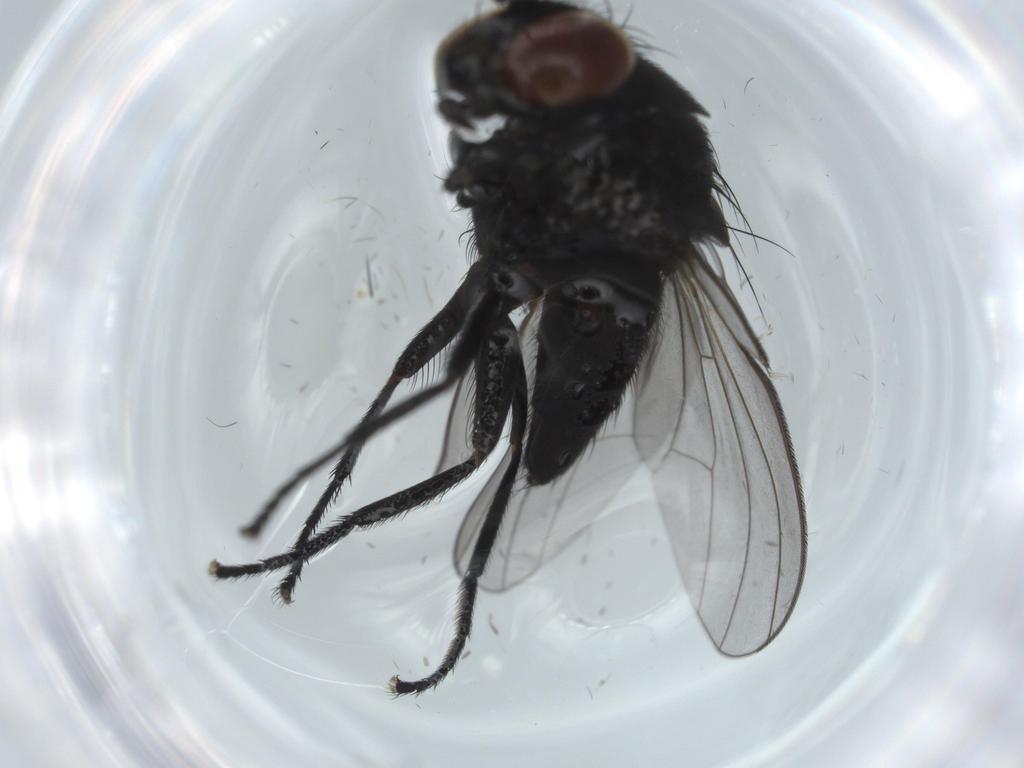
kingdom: Animalia
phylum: Arthropoda
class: Insecta
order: Diptera
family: Milichiidae
